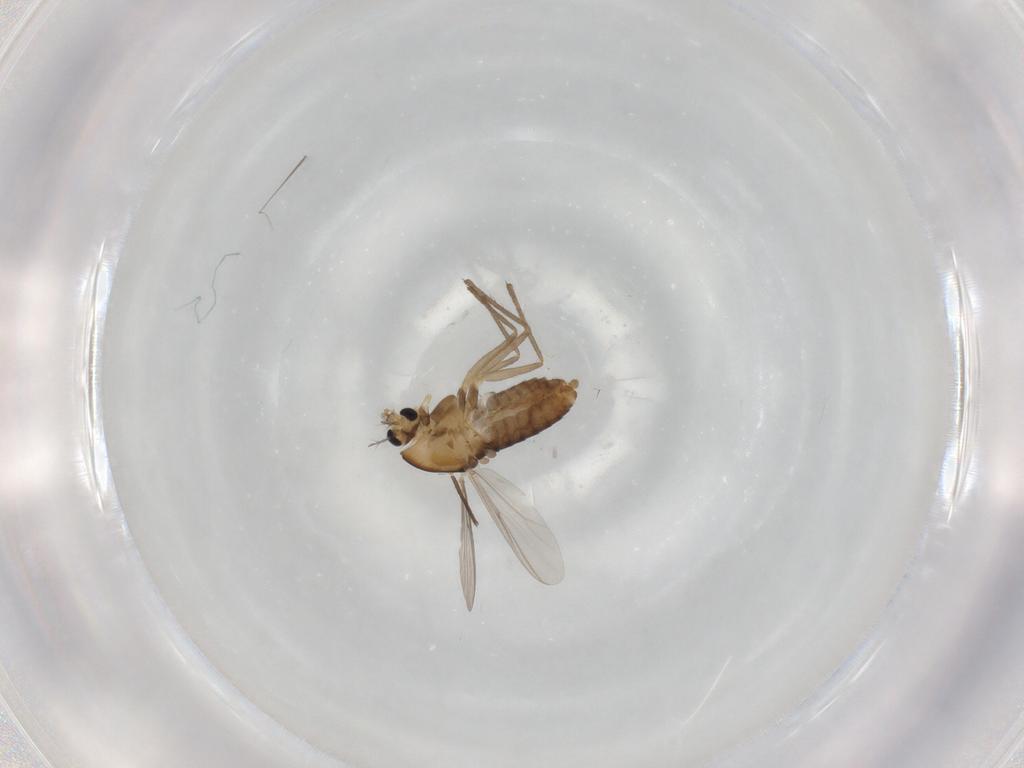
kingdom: Animalia
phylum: Arthropoda
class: Insecta
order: Diptera
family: Chironomidae
